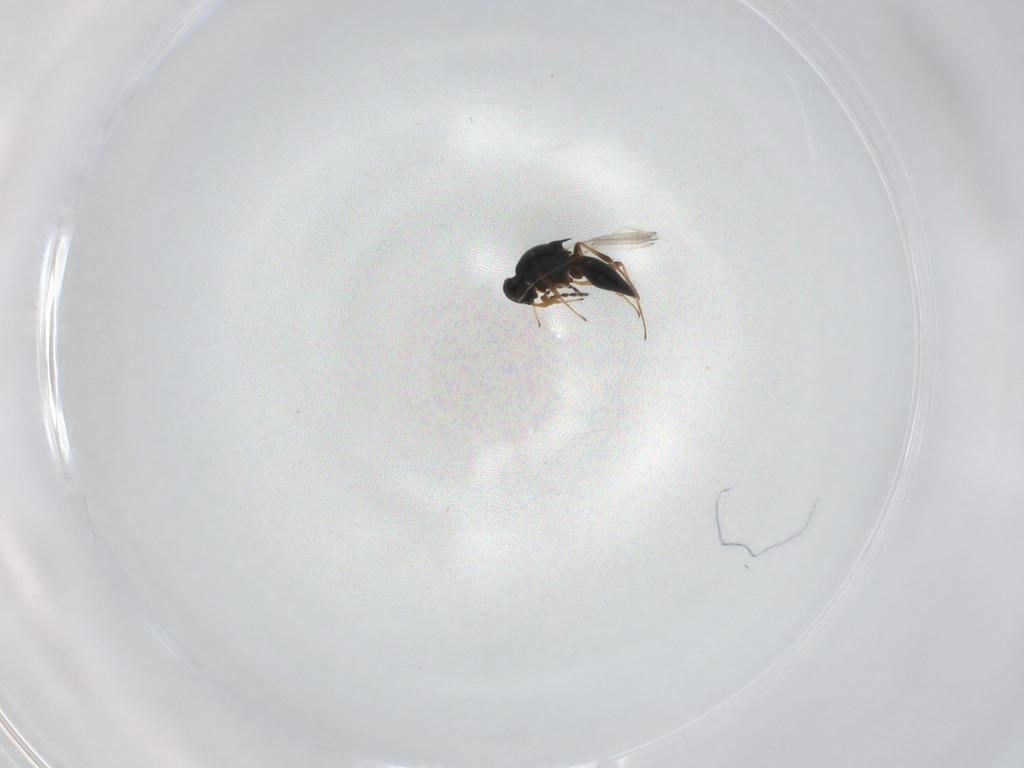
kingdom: Animalia
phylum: Arthropoda
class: Insecta
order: Hymenoptera
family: Platygastridae
